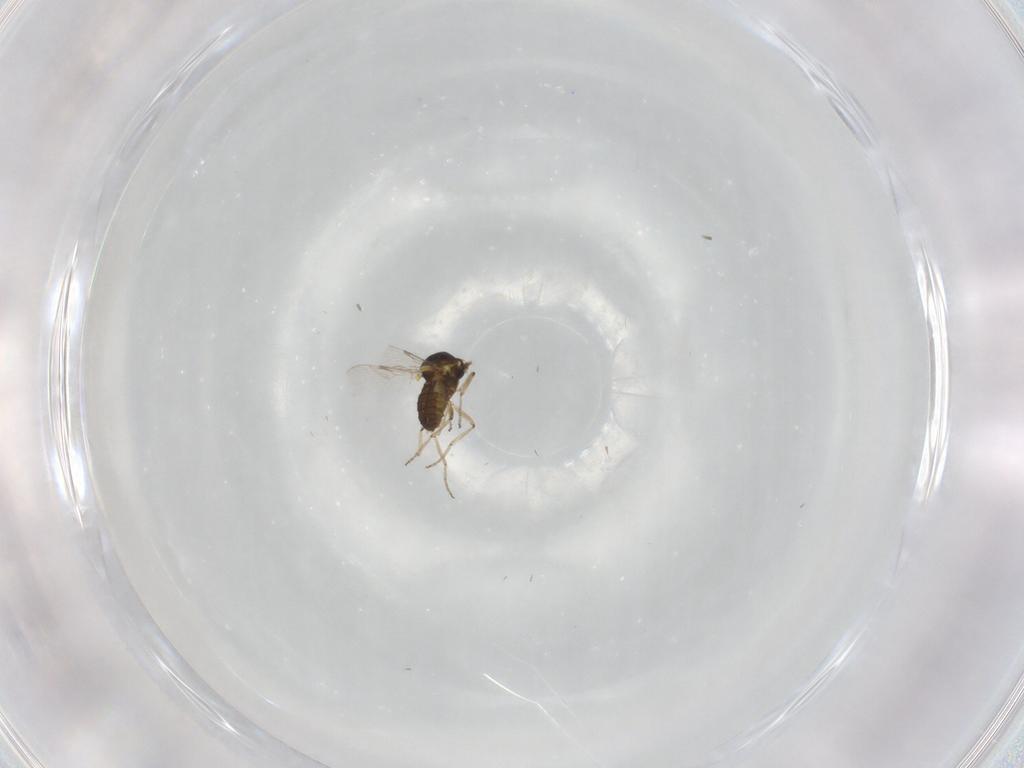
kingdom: Animalia
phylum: Arthropoda
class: Insecta
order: Diptera
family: Ceratopogonidae
